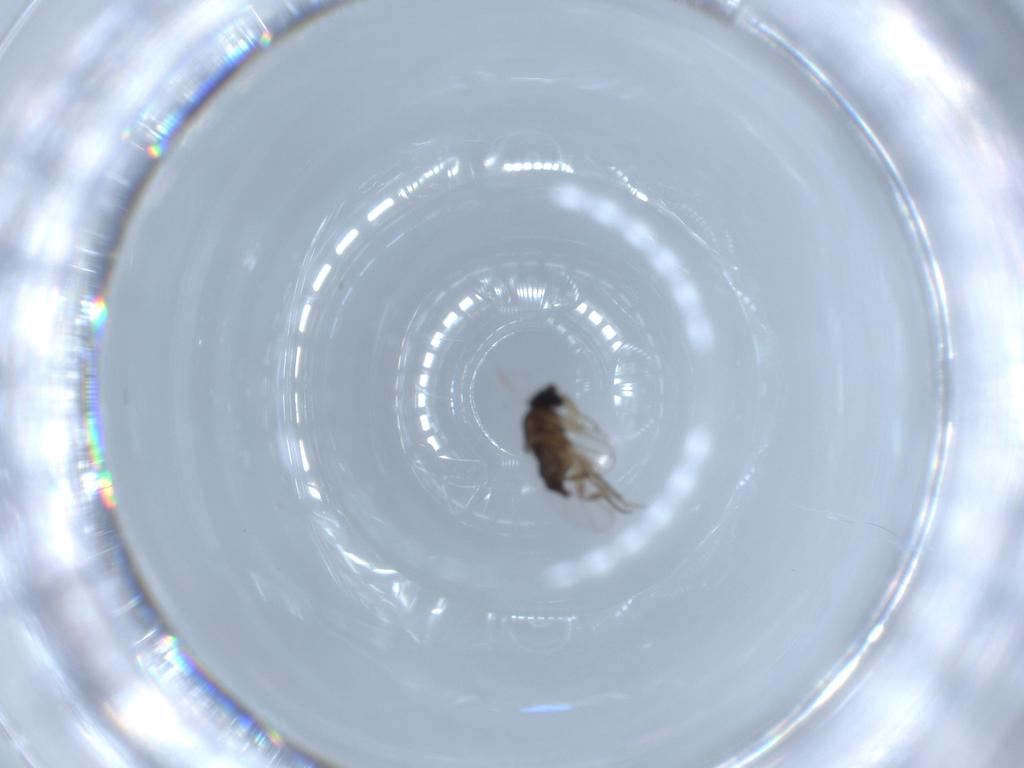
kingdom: Animalia
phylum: Arthropoda
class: Insecta
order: Diptera
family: Phoridae
